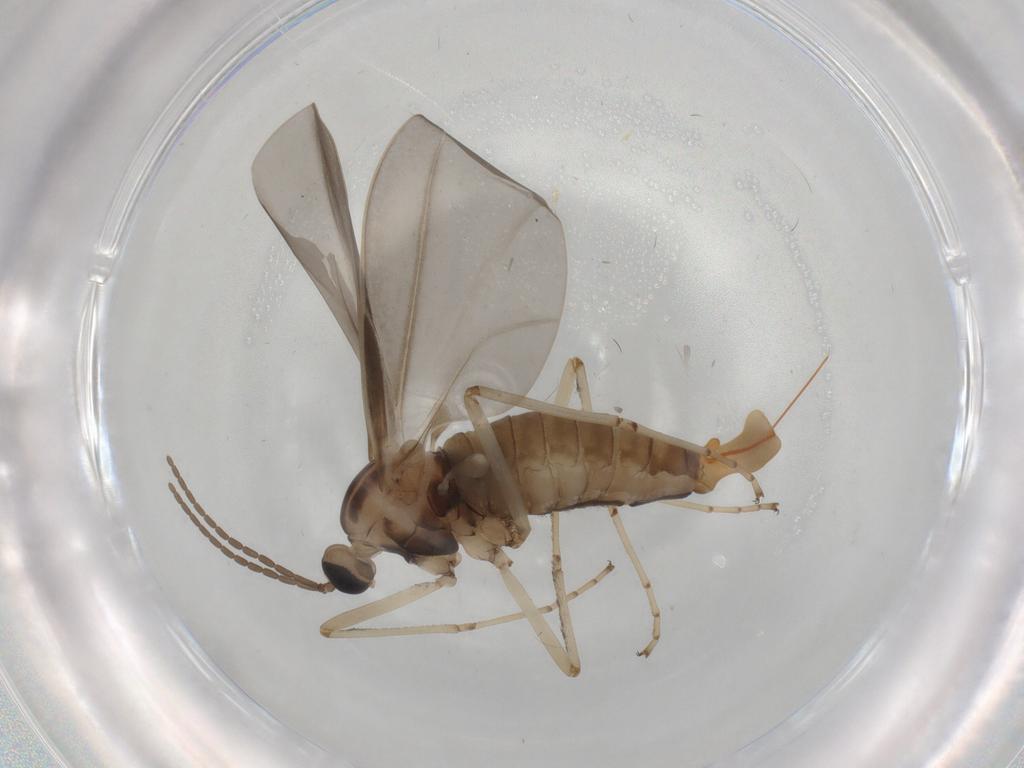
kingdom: Animalia
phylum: Arthropoda
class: Insecta
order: Diptera
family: Cecidomyiidae
